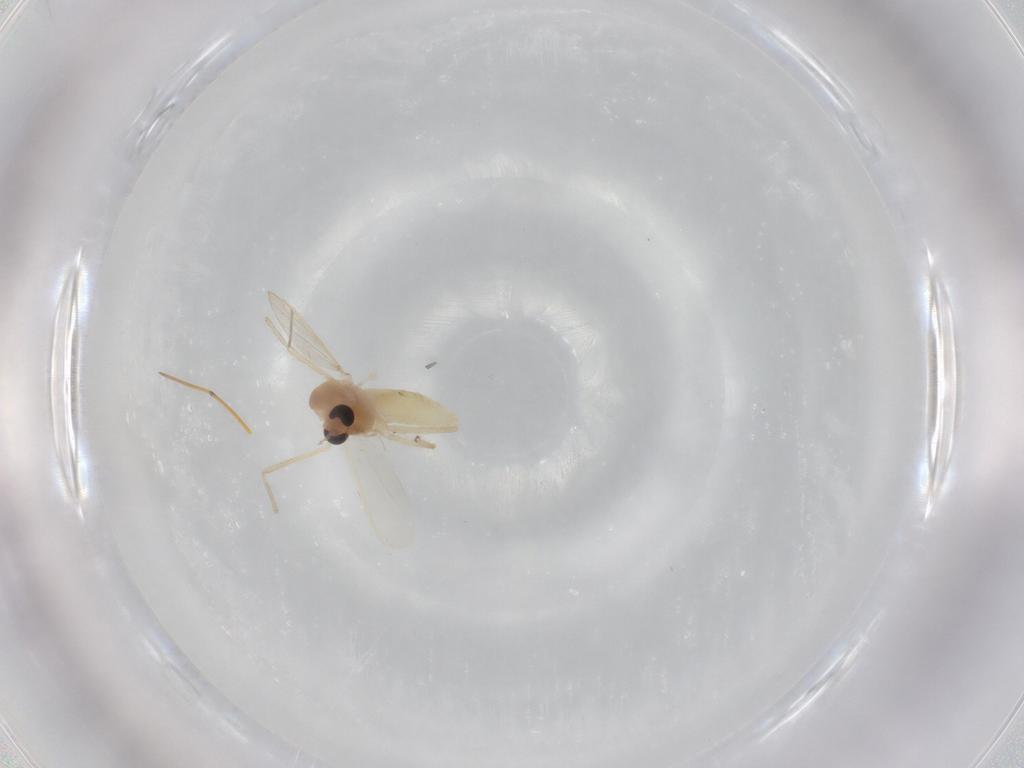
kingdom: Animalia
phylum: Arthropoda
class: Insecta
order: Diptera
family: Chironomidae
